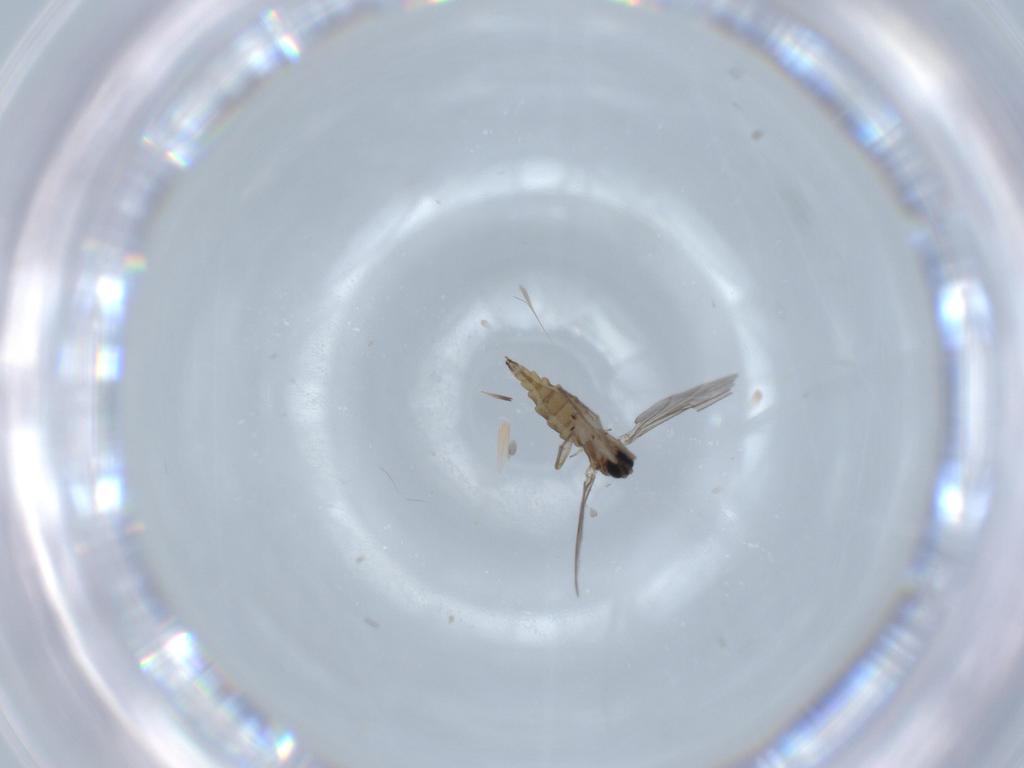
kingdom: Animalia
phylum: Arthropoda
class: Insecta
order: Diptera
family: Sciaridae
